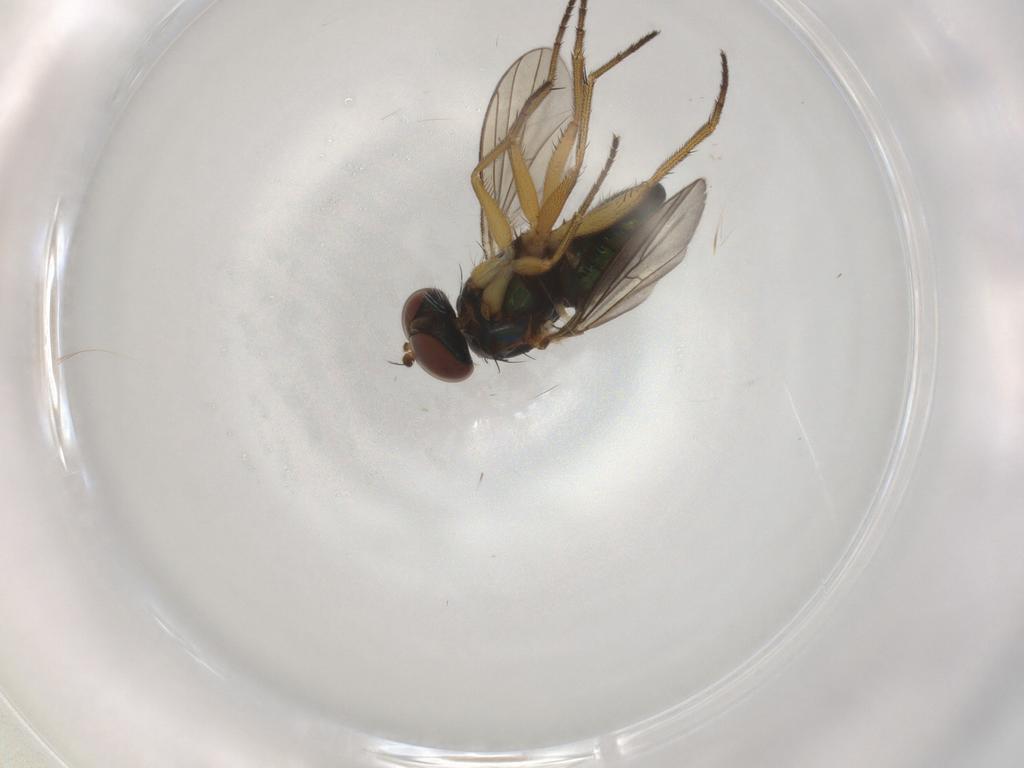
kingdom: Animalia
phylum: Arthropoda
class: Insecta
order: Diptera
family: Dolichopodidae
